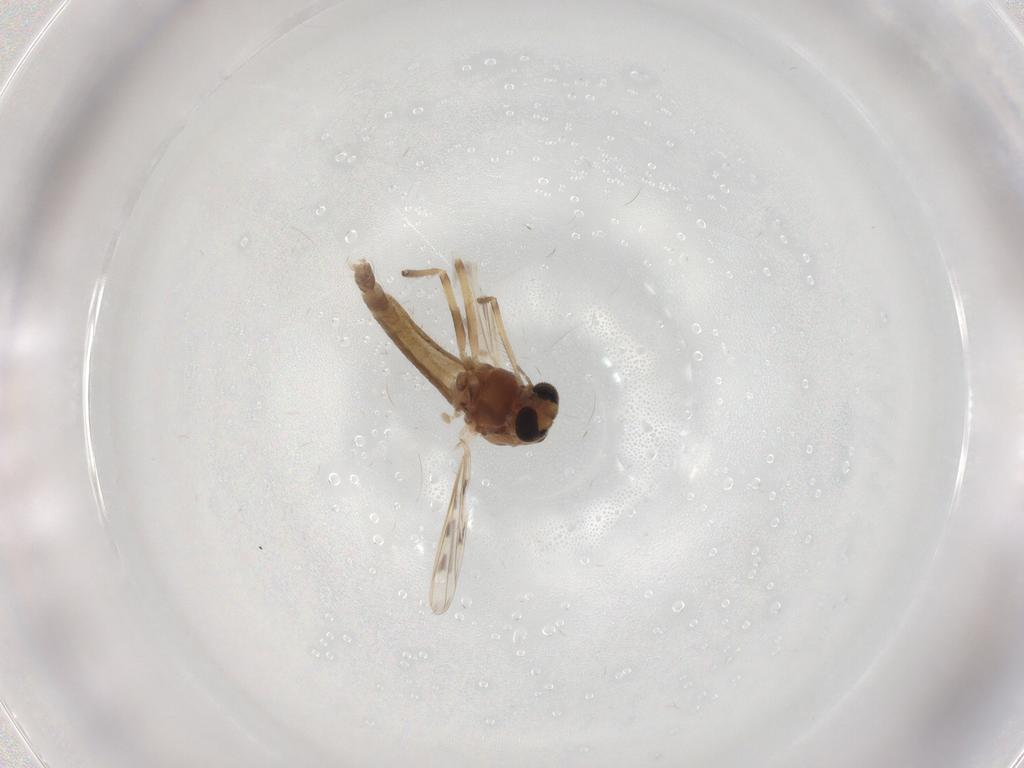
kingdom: Animalia
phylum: Arthropoda
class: Insecta
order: Diptera
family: Chironomidae
